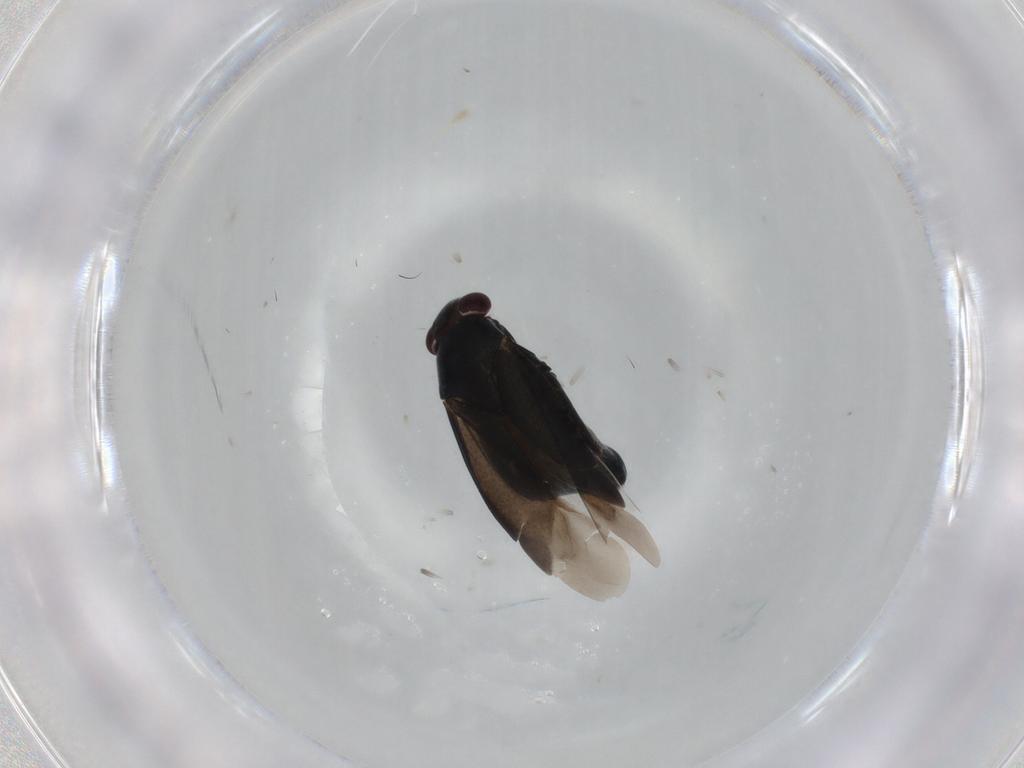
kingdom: Animalia
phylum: Arthropoda
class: Insecta
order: Hemiptera
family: Miridae
